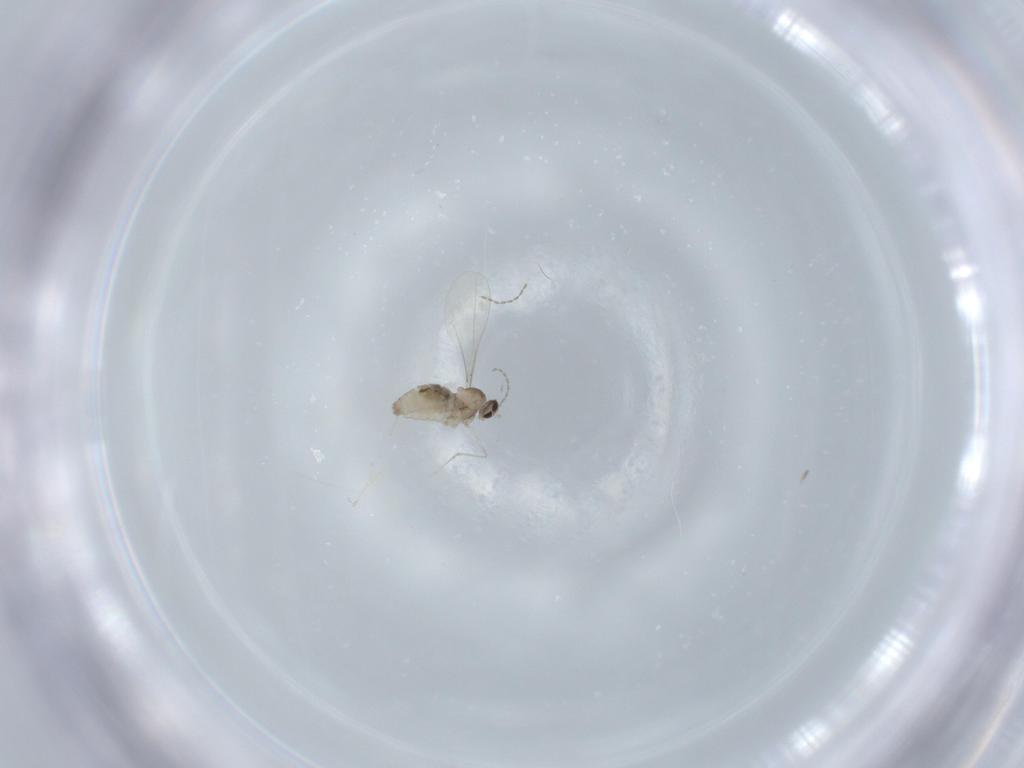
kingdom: Animalia
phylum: Arthropoda
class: Insecta
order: Diptera
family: Cecidomyiidae
